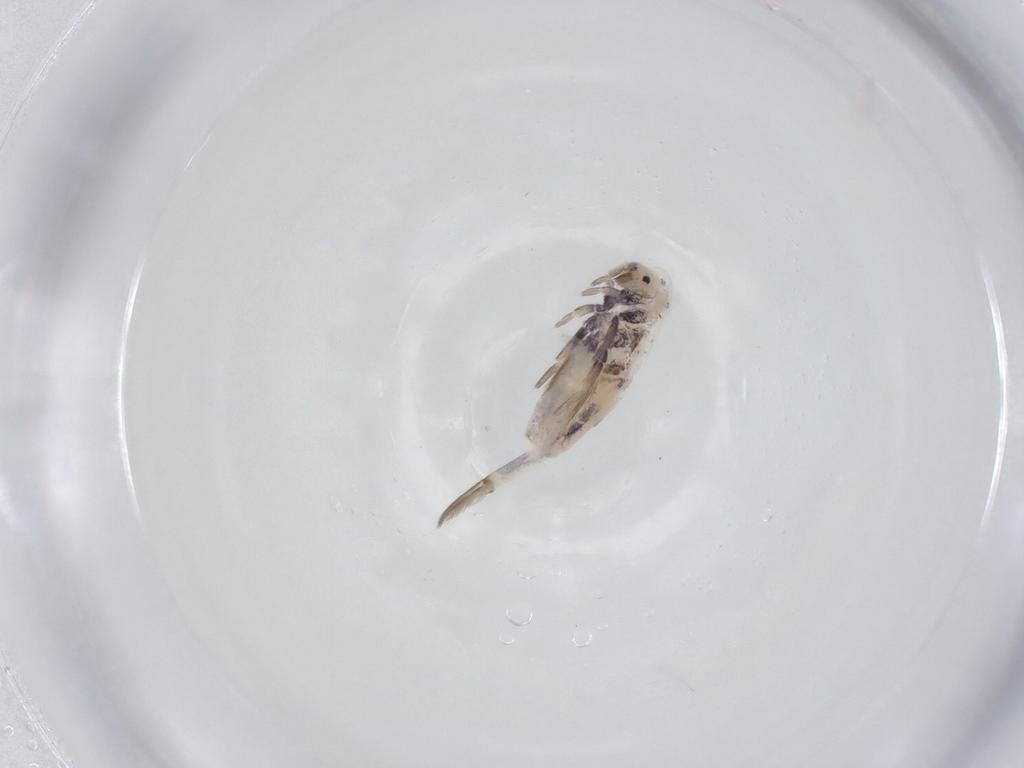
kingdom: Animalia
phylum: Arthropoda
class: Collembola
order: Entomobryomorpha
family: Entomobryidae
